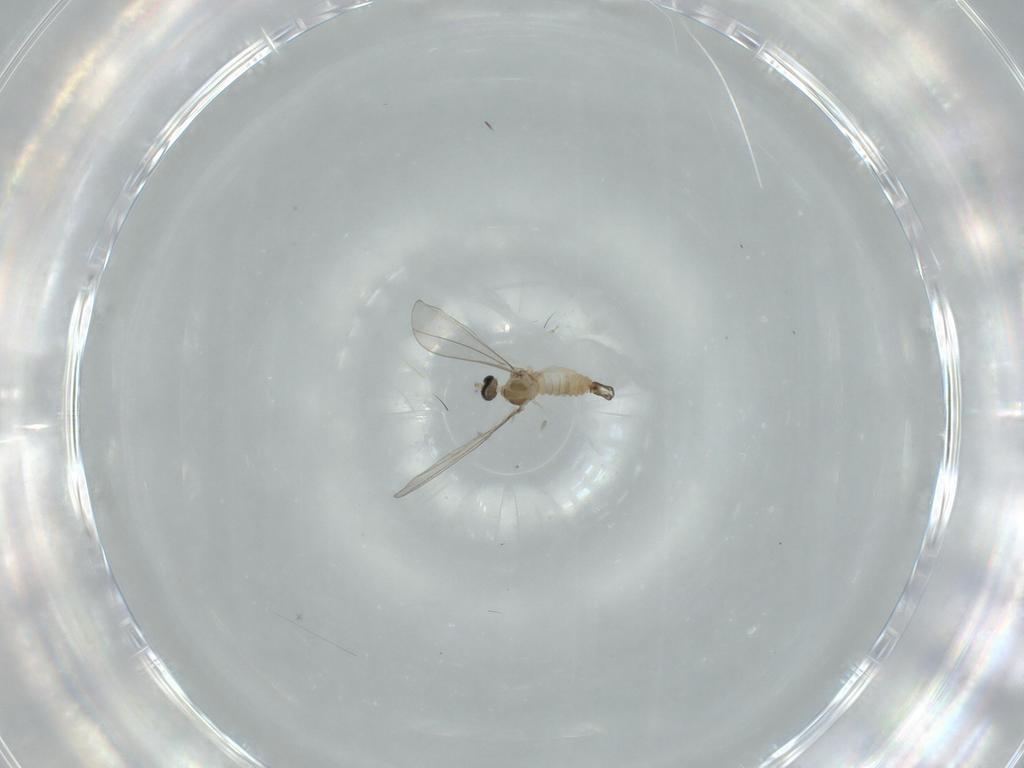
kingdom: Animalia
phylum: Arthropoda
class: Insecta
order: Diptera
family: Cecidomyiidae
